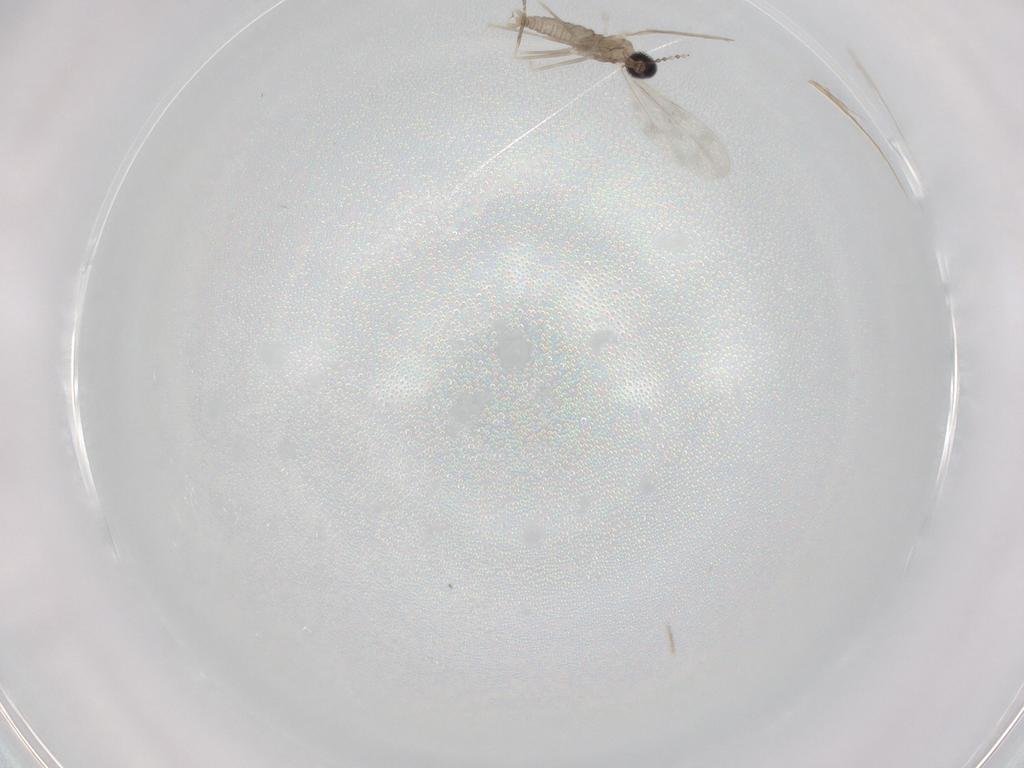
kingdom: Animalia
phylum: Arthropoda
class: Insecta
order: Diptera
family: Cecidomyiidae
